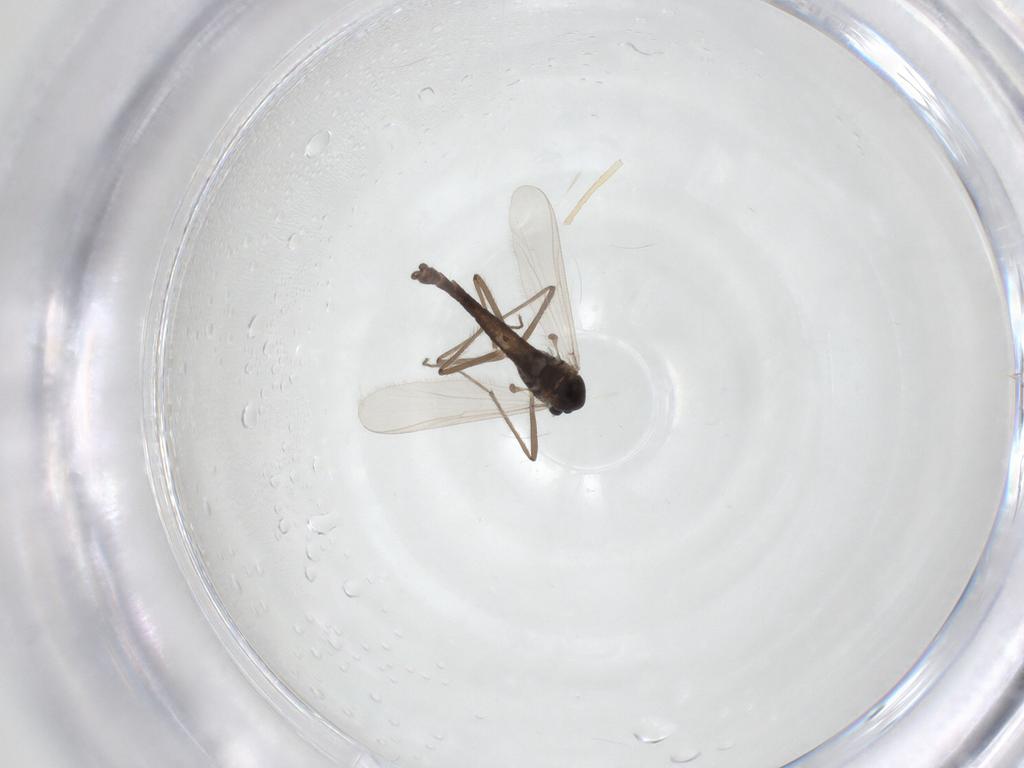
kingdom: Animalia
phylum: Arthropoda
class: Insecta
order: Diptera
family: Chironomidae
